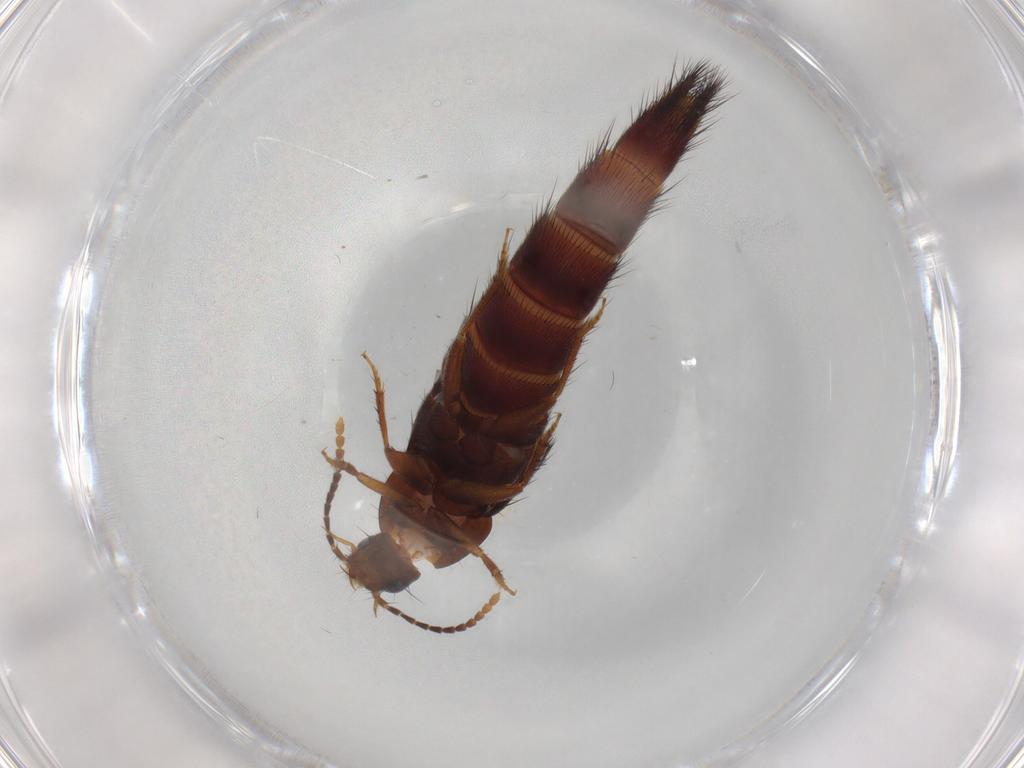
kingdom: Animalia
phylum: Arthropoda
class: Insecta
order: Coleoptera
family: Staphylinidae
